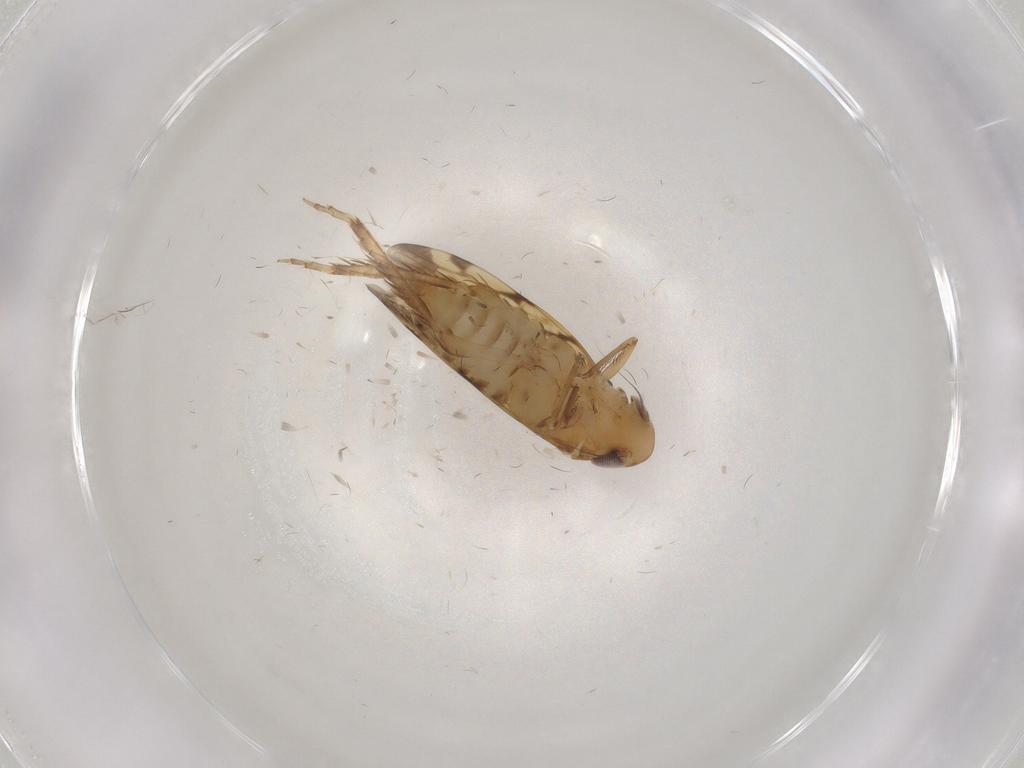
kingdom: Animalia
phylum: Arthropoda
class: Insecta
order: Hemiptera
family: Cicadellidae
